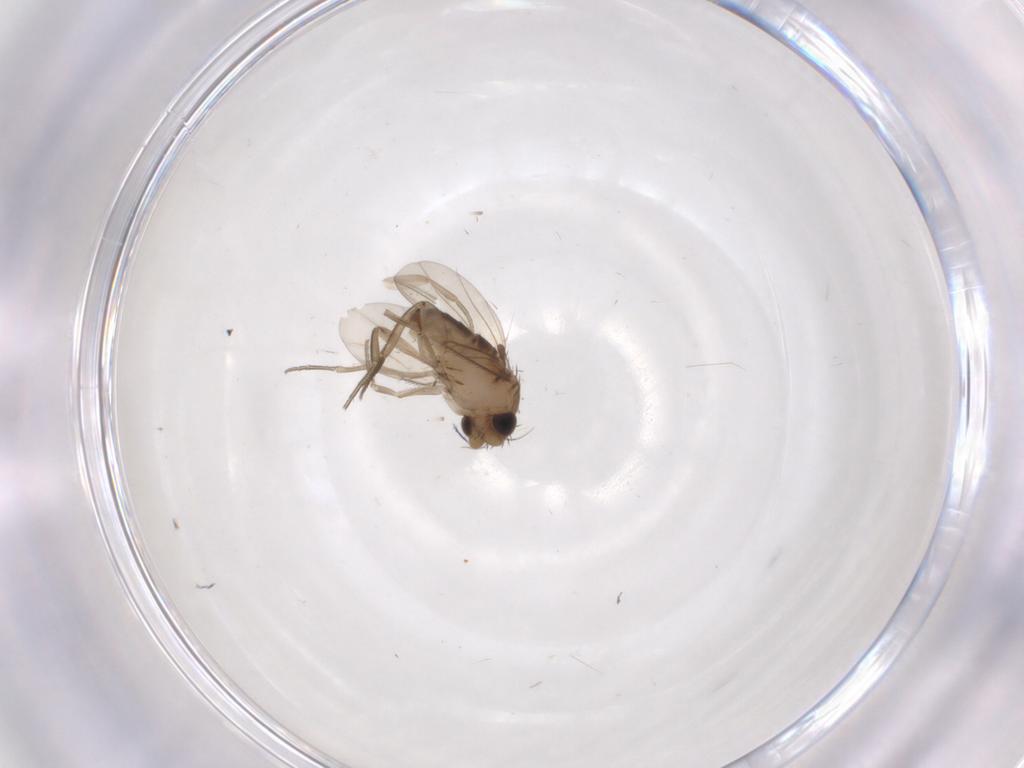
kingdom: Animalia
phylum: Arthropoda
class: Insecta
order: Diptera
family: Phoridae
